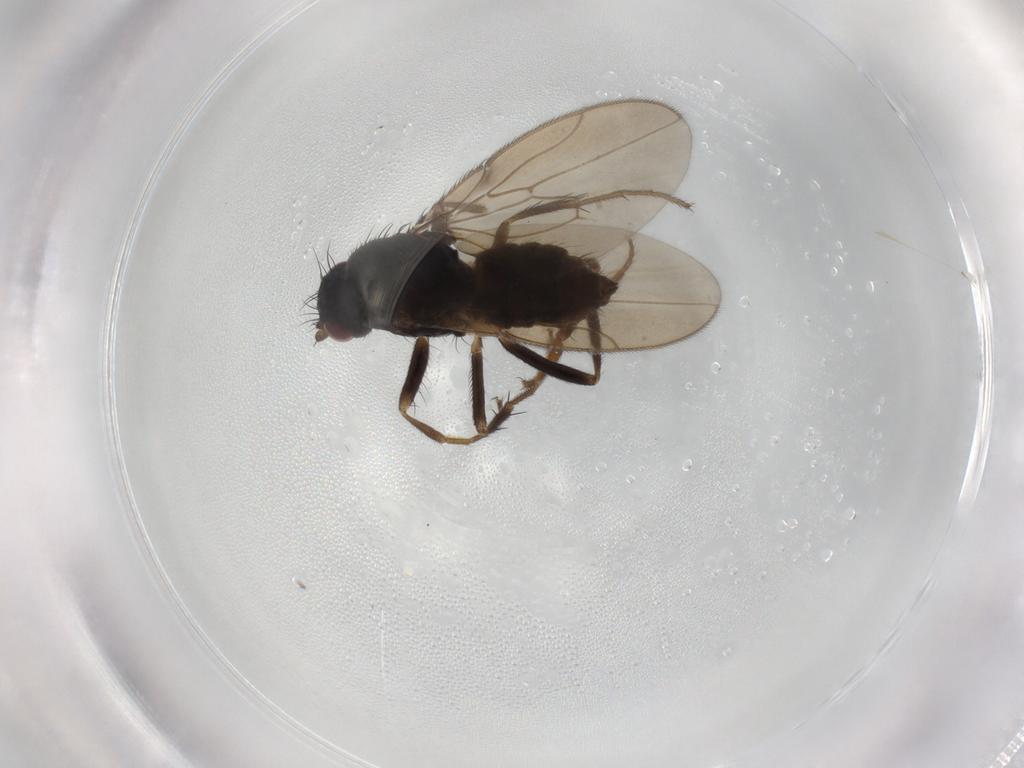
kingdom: Animalia
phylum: Arthropoda
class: Insecta
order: Diptera
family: Sphaeroceridae
